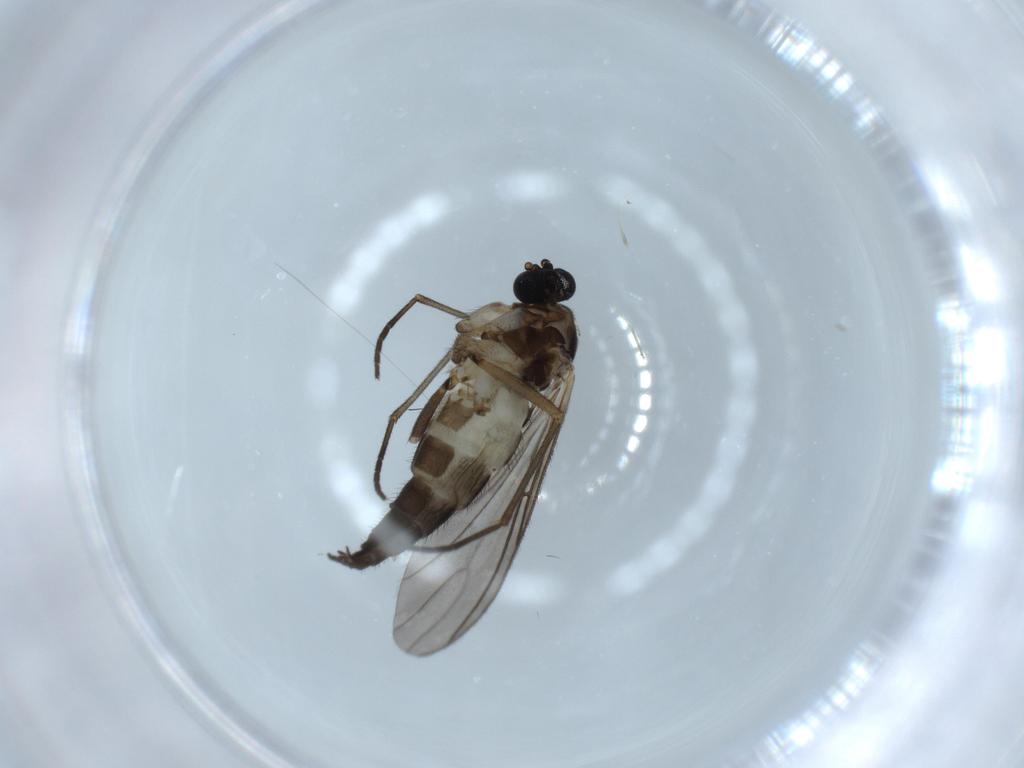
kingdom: Animalia
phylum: Arthropoda
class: Insecta
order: Diptera
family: Sciaridae
